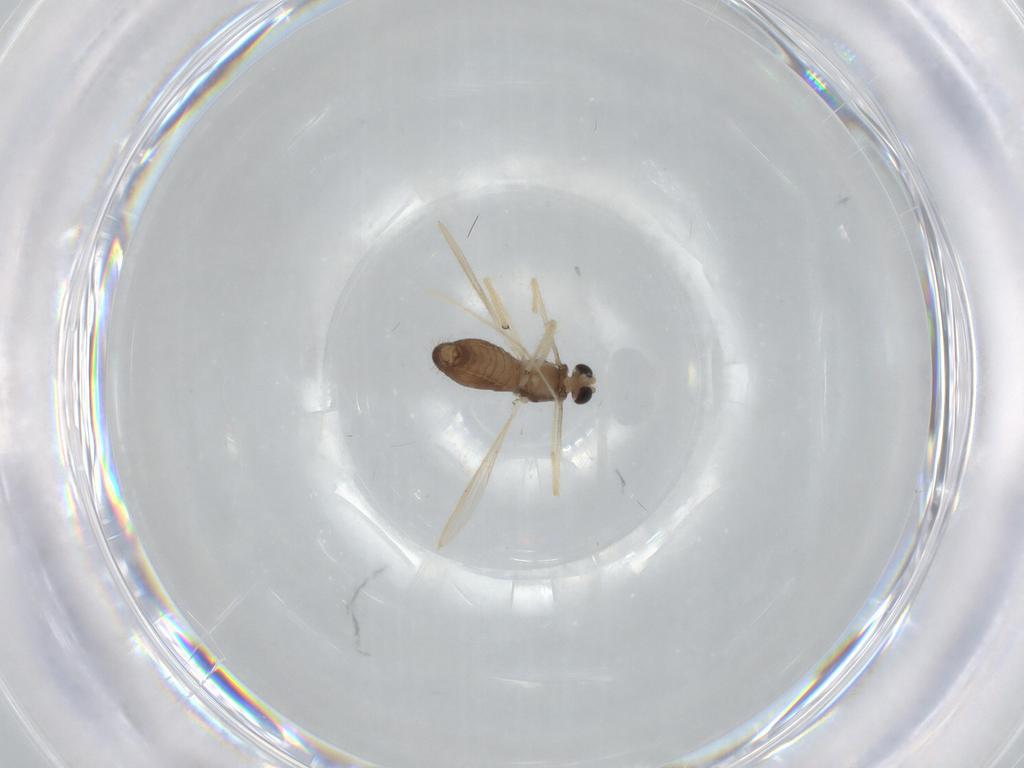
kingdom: Animalia
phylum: Arthropoda
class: Insecta
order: Diptera
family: Chironomidae
